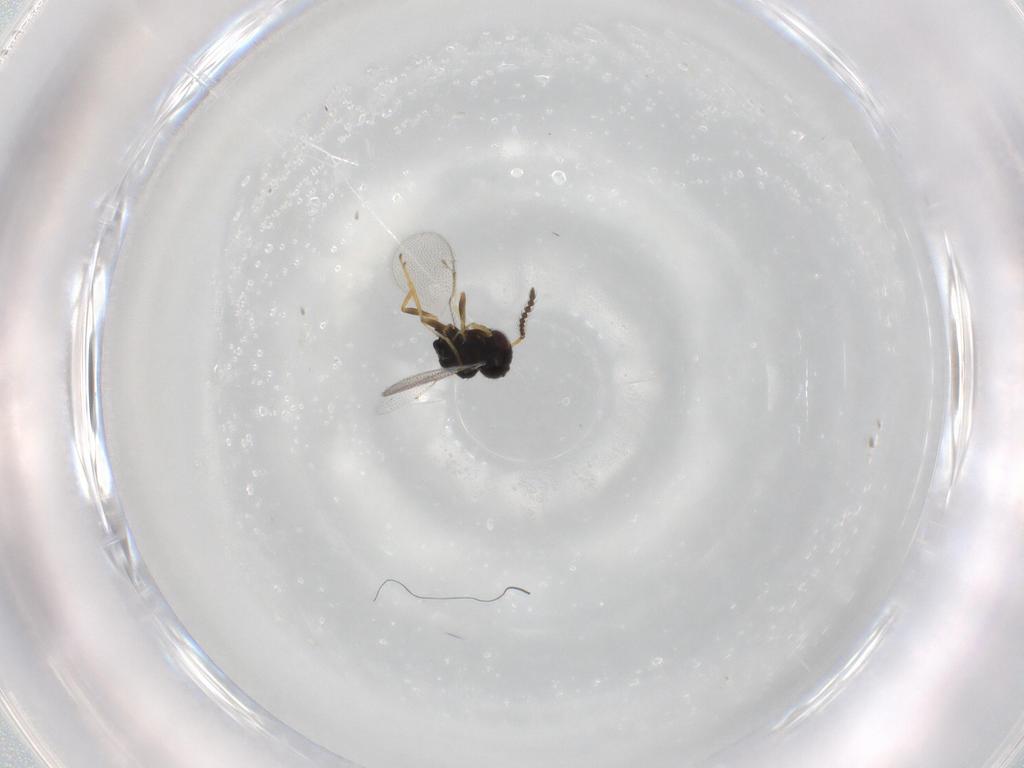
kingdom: Animalia
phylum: Arthropoda
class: Insecta
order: Hymenoptera
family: Pteromalidae
